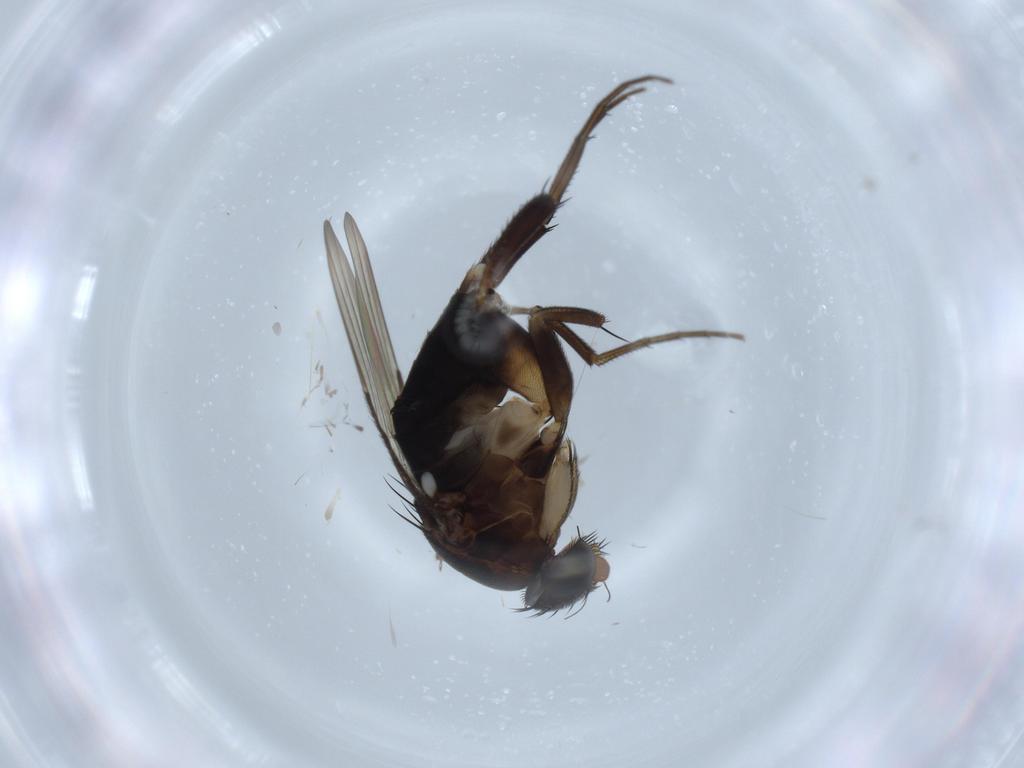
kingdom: Animalia
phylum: Arthropoda
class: Insecta
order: Diptera
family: Phoridae
